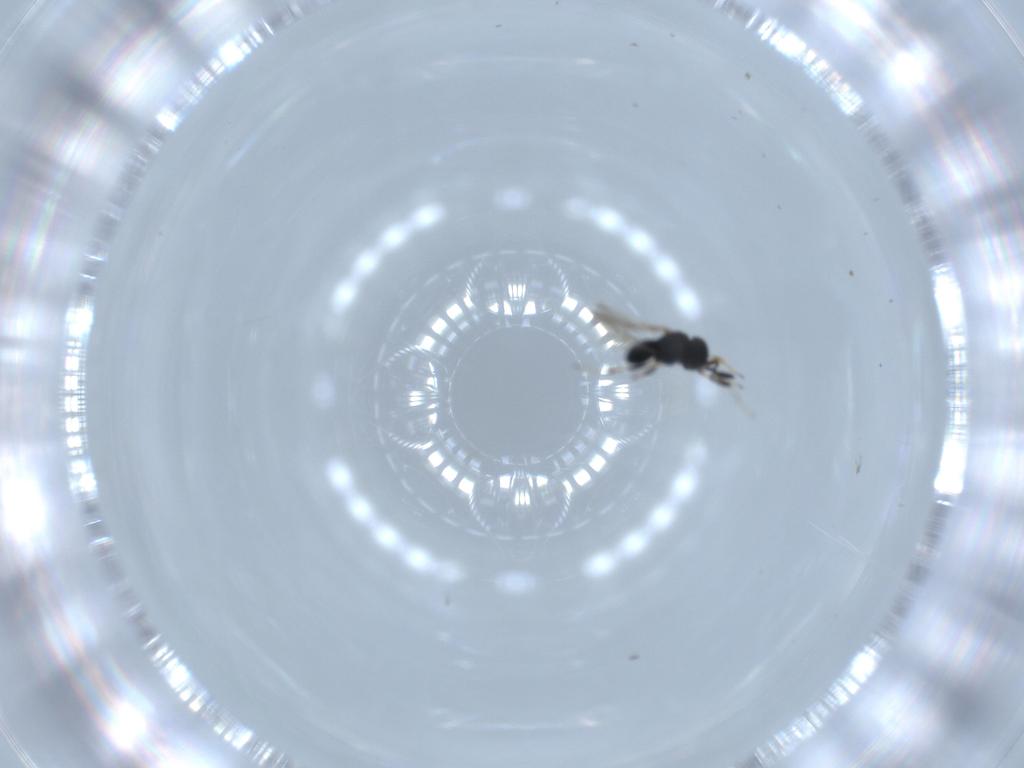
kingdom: Animalia
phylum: Arthropoda
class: Insecta
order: Hymenoptera
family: Scelionidae
